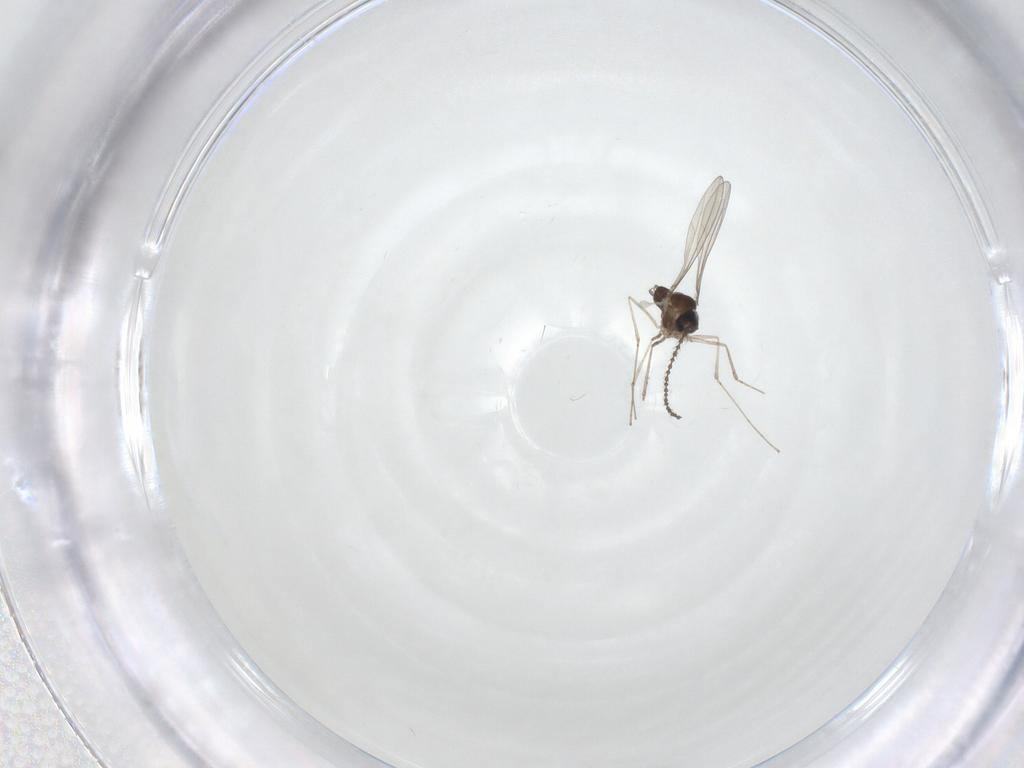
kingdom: Animalia
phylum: Arthropoda
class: Insecta
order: Diptera
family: Cecidomyiidae
